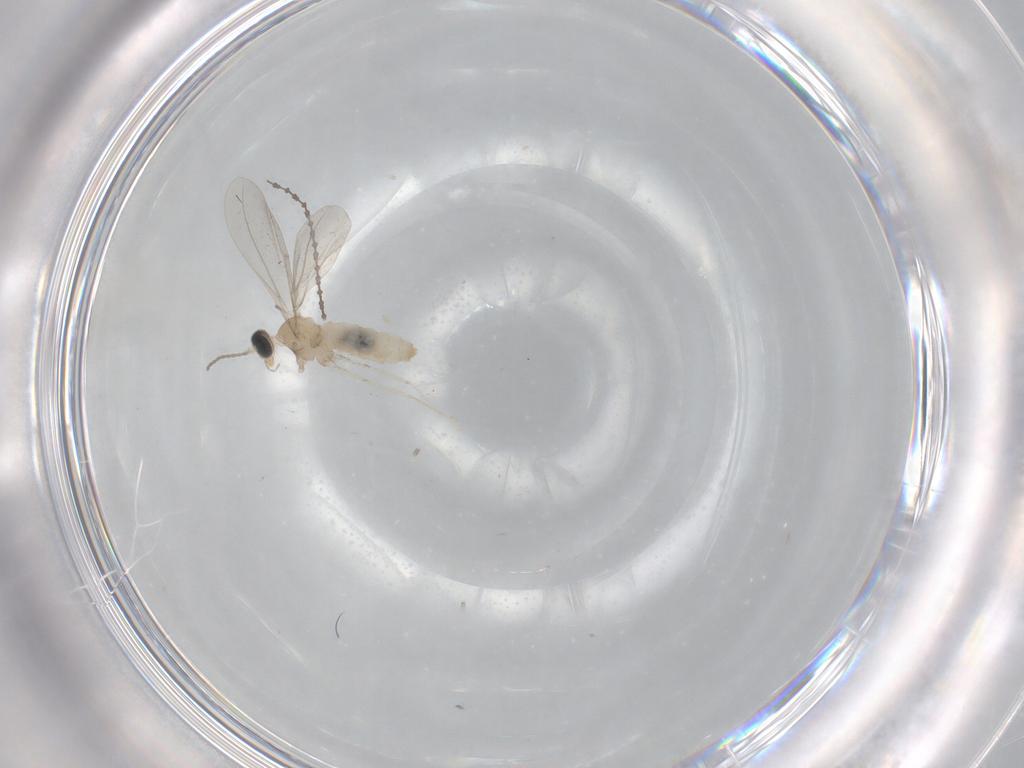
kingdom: Animalia
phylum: Arthropoda
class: Insecta
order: Diptera
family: Cecidomyiidae
